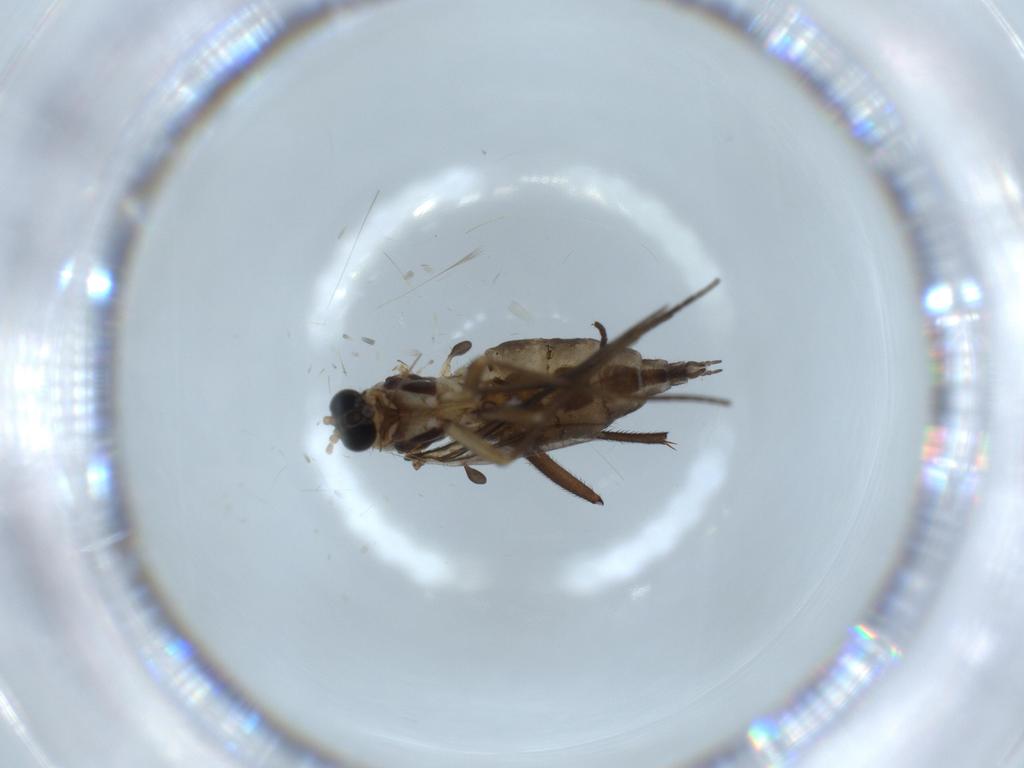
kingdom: Animalia
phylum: Arthropoda
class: Insecta
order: Diptera
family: Sciaridae
